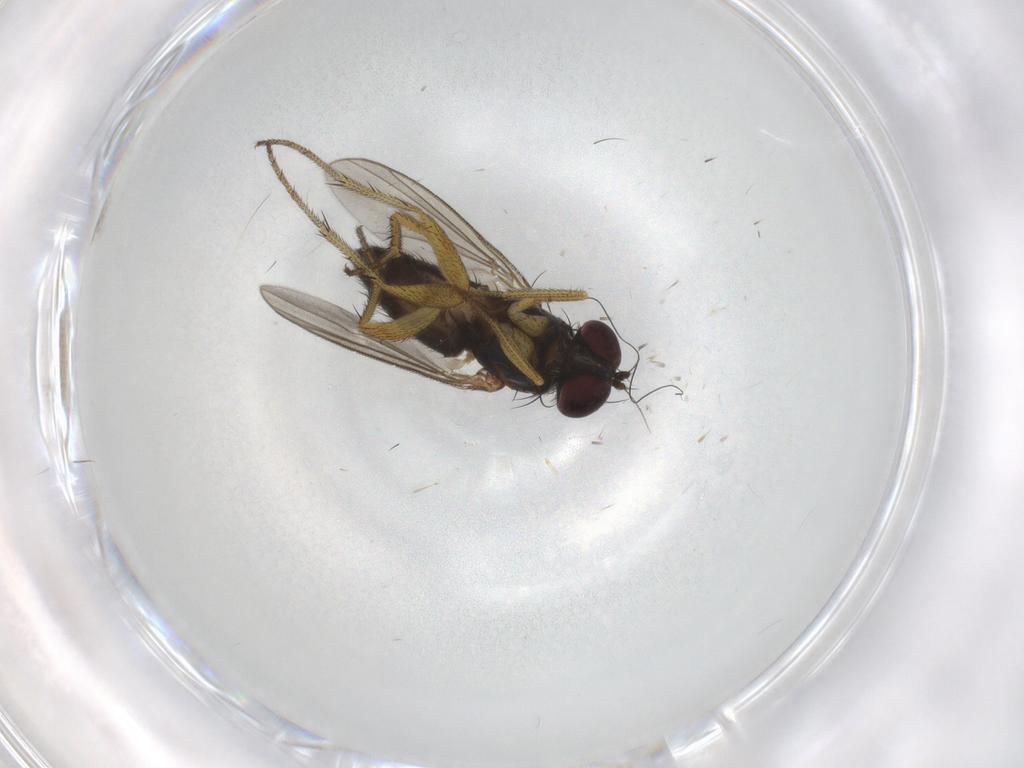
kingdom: Animalia
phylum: Arthropoda
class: Insecta
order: Diptera
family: Dolichopodidae
